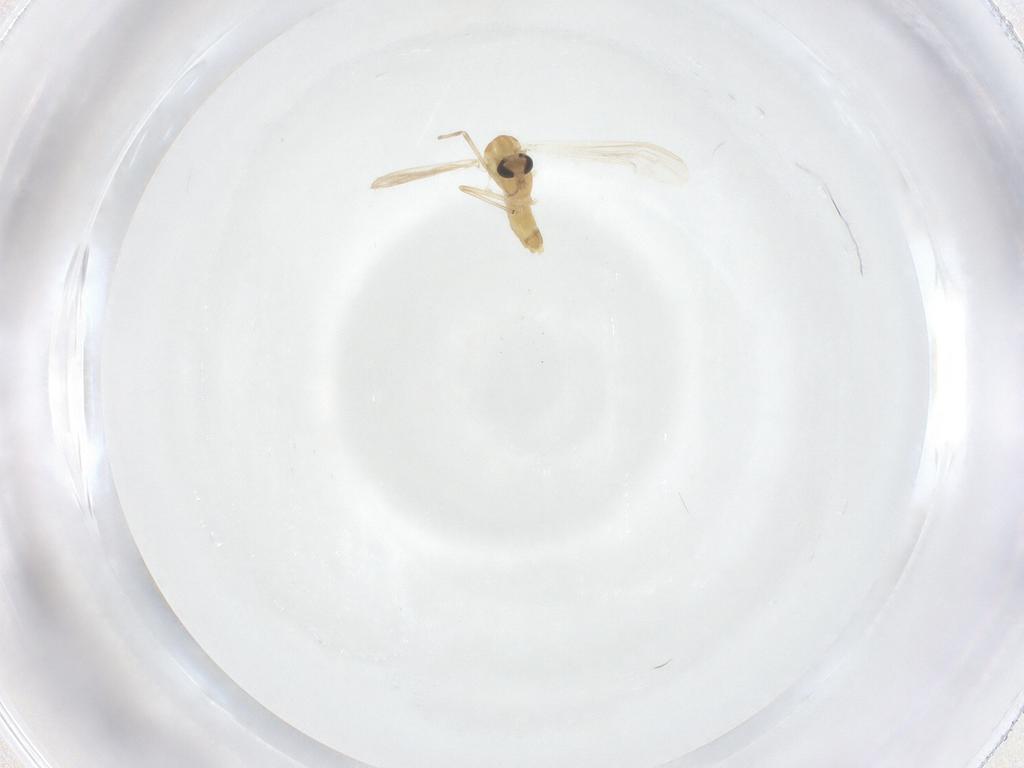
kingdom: Animalia
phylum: Arthropoda
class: Insecta
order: Diptera
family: Chironomidae
